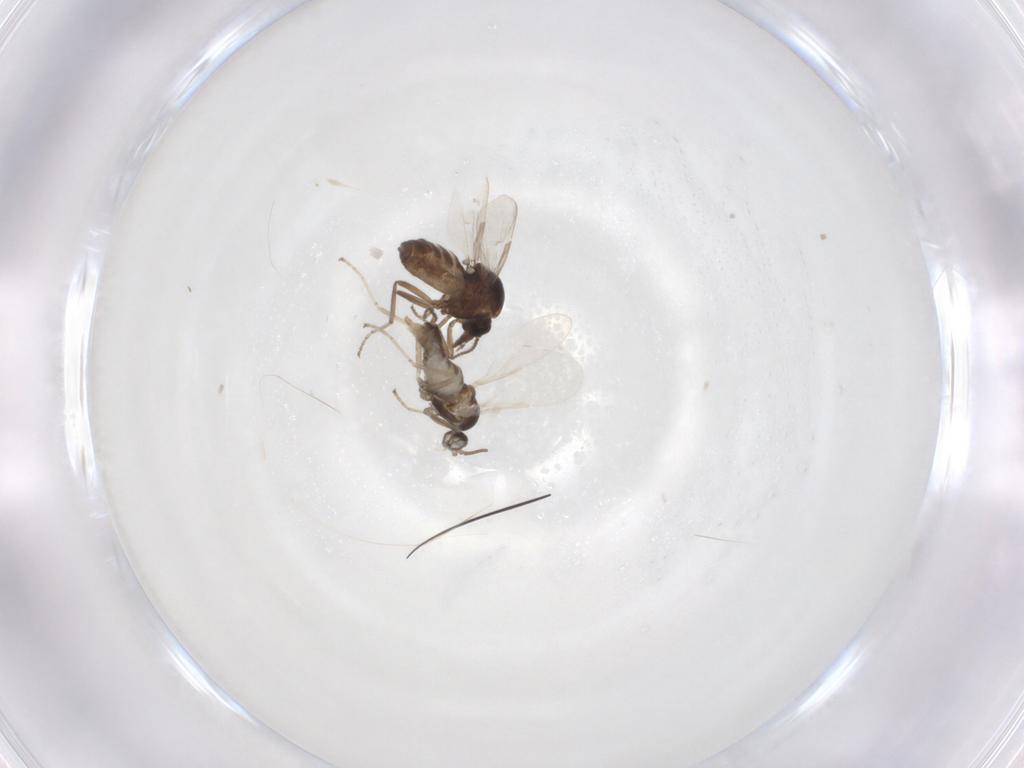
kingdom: Animalia
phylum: Arthropoda
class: Insecta
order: Diptera
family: Cecidomyiidae
